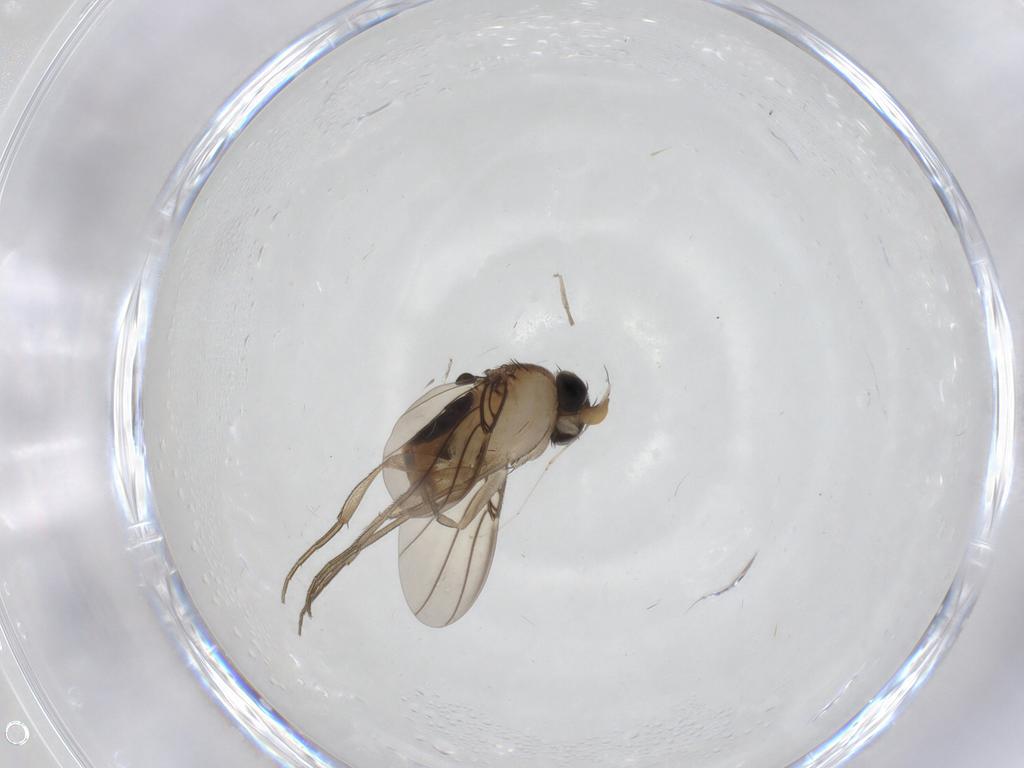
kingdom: Animalia
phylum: Arthropoda
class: Insecta
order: Diptera
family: Phoridae
